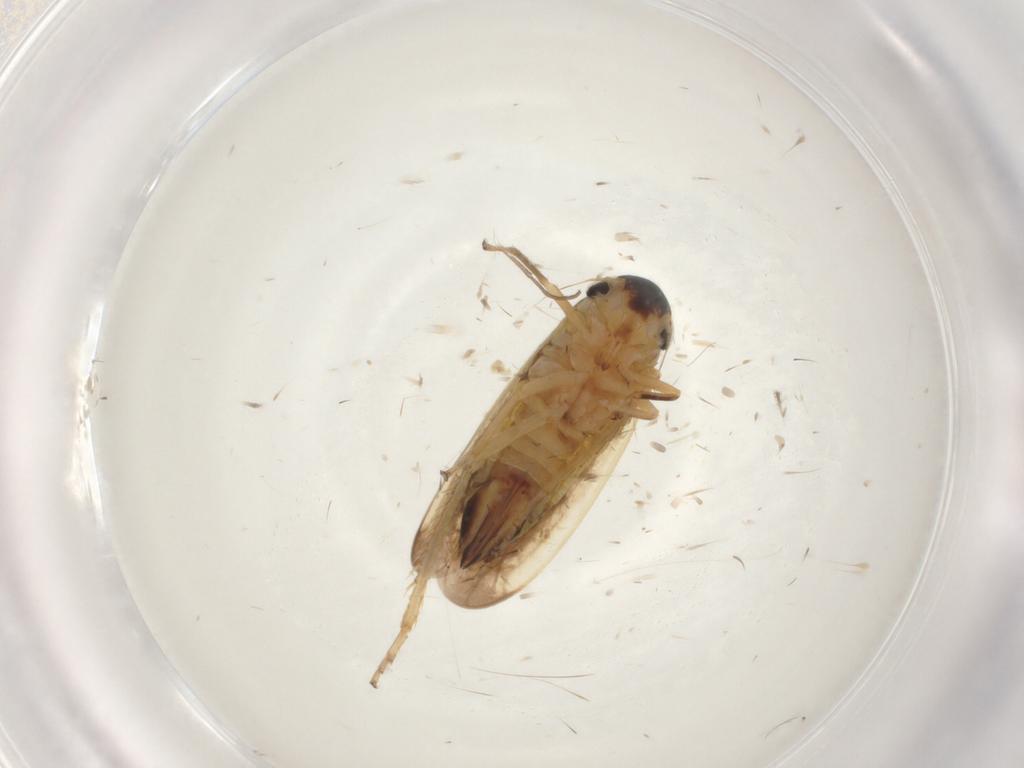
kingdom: Animalia
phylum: Arthropoda
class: Insecta
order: Hemiptera
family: Cicadellidae
